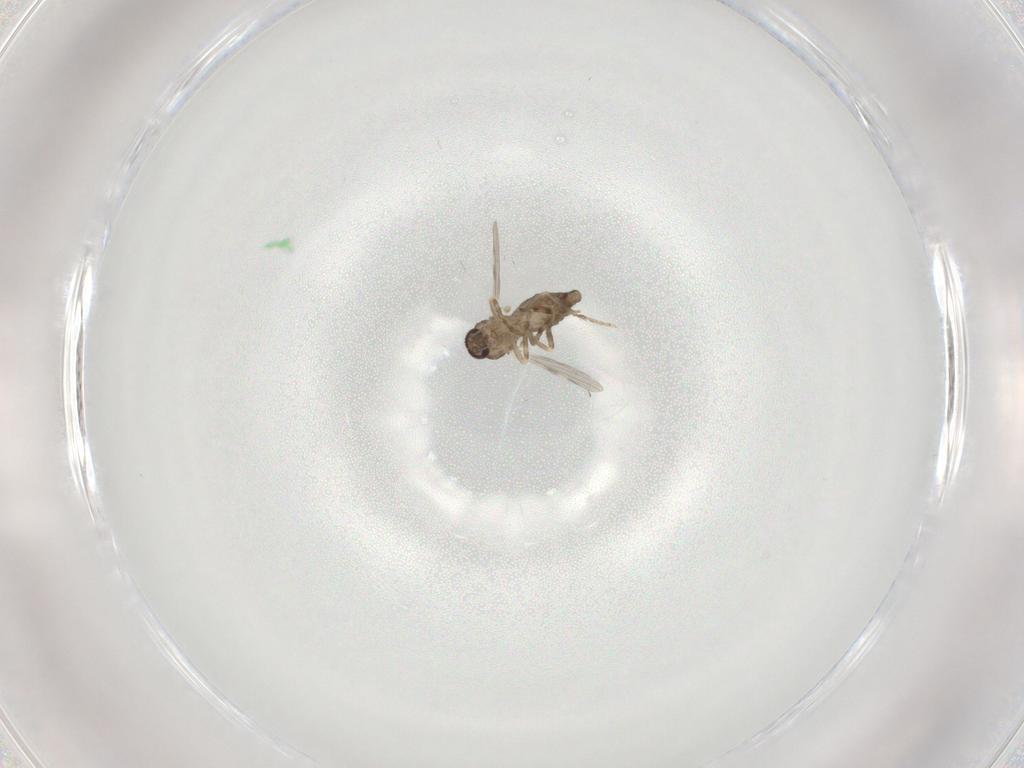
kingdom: Animalia
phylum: Arthropoda
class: Insecta
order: Diptera
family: Ceratopogonidae
